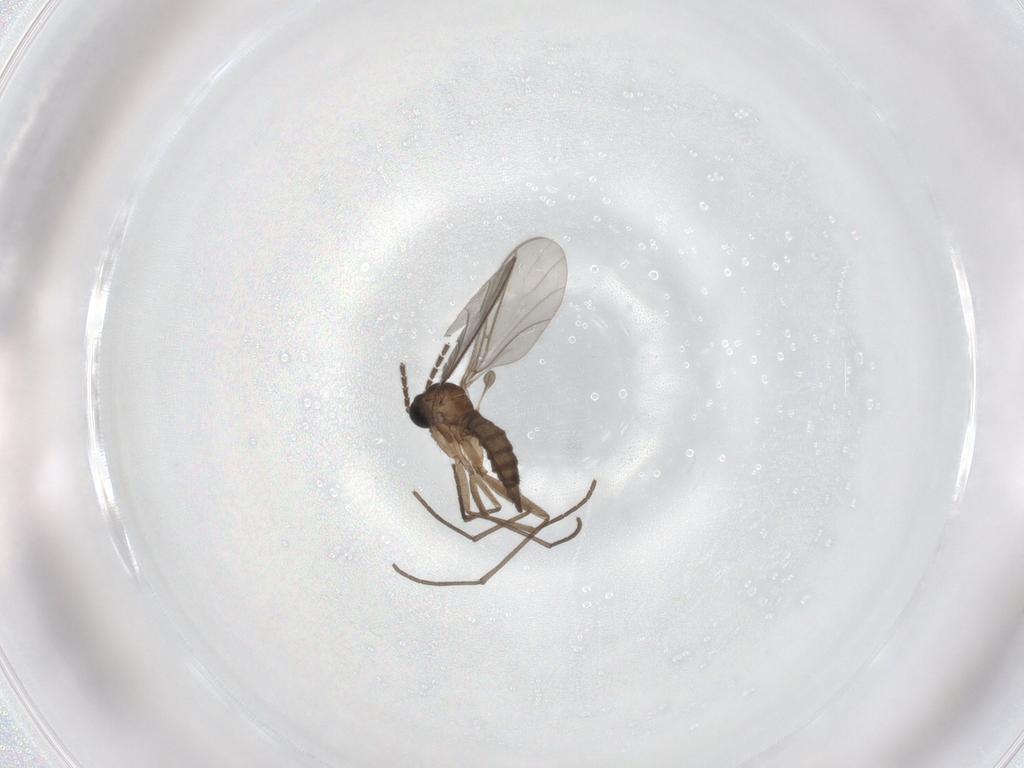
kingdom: Animalia
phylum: Arthropoda
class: Insecta
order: Diptera
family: Sciaridae
